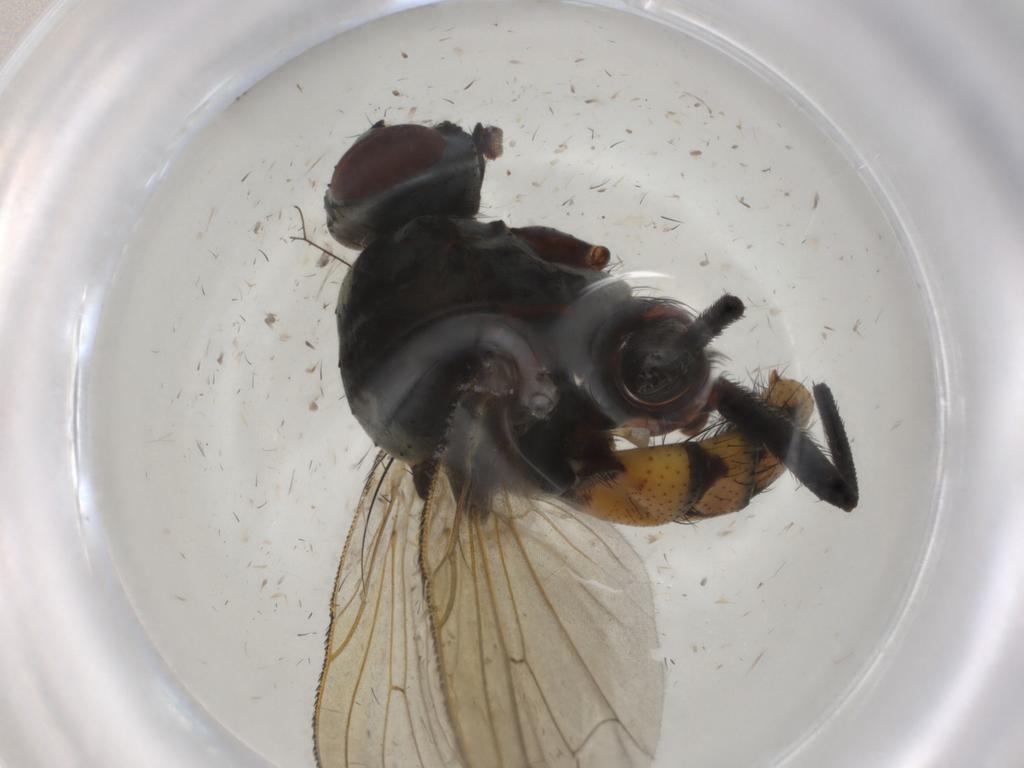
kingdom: Animalia
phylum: Arthropoda
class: Insecta
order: Diptera
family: Anthomyiidae
